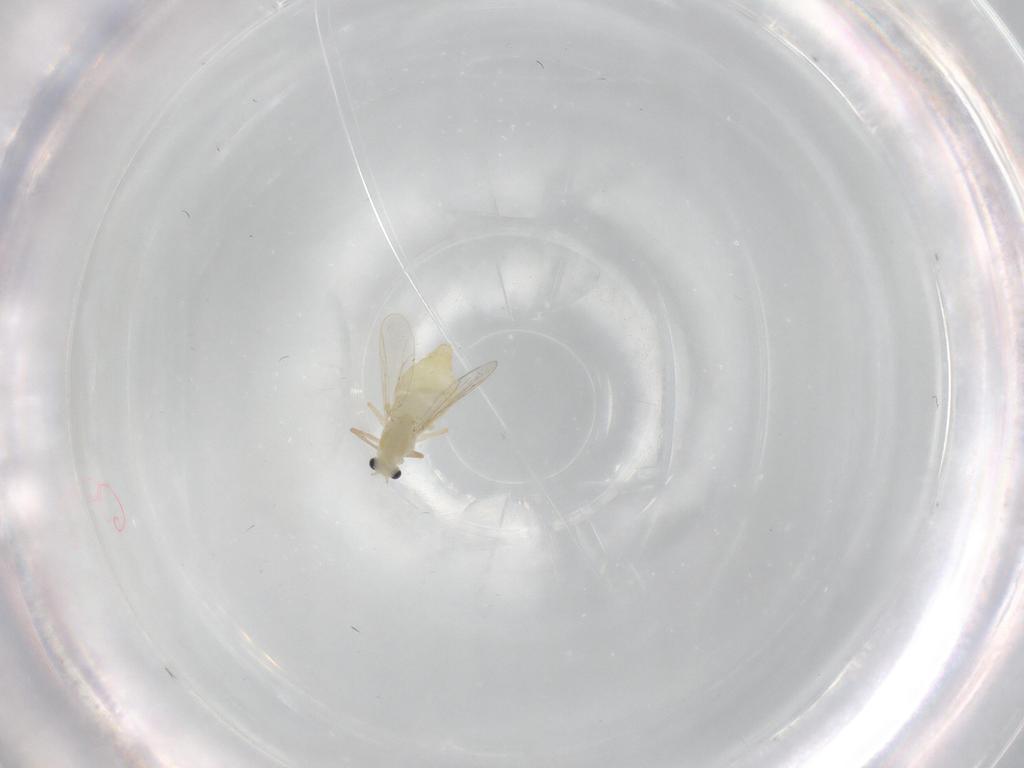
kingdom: Animalia
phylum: Arthropoda
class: Insecta
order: Diptera
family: Chironomidae
